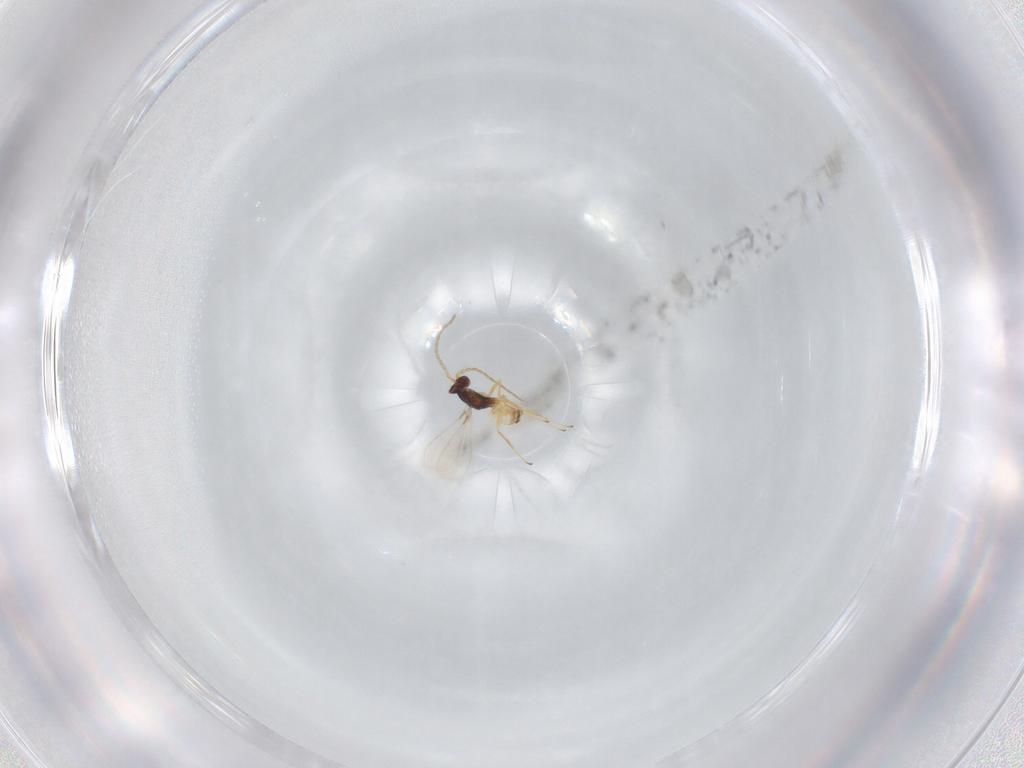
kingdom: Animalia
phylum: Arthropoda
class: Insecta
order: Hymenoptera
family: Mymaridae
